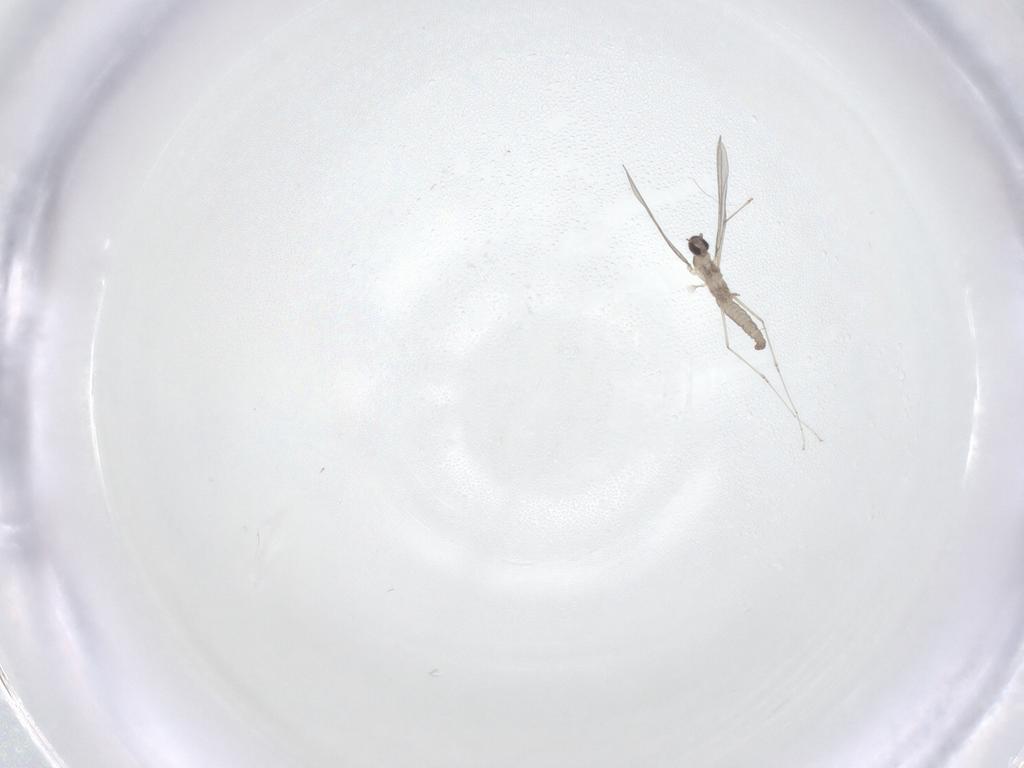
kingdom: Animalia
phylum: Arthropoda
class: Insecta
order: Diptera
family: Cecidomyiidae
